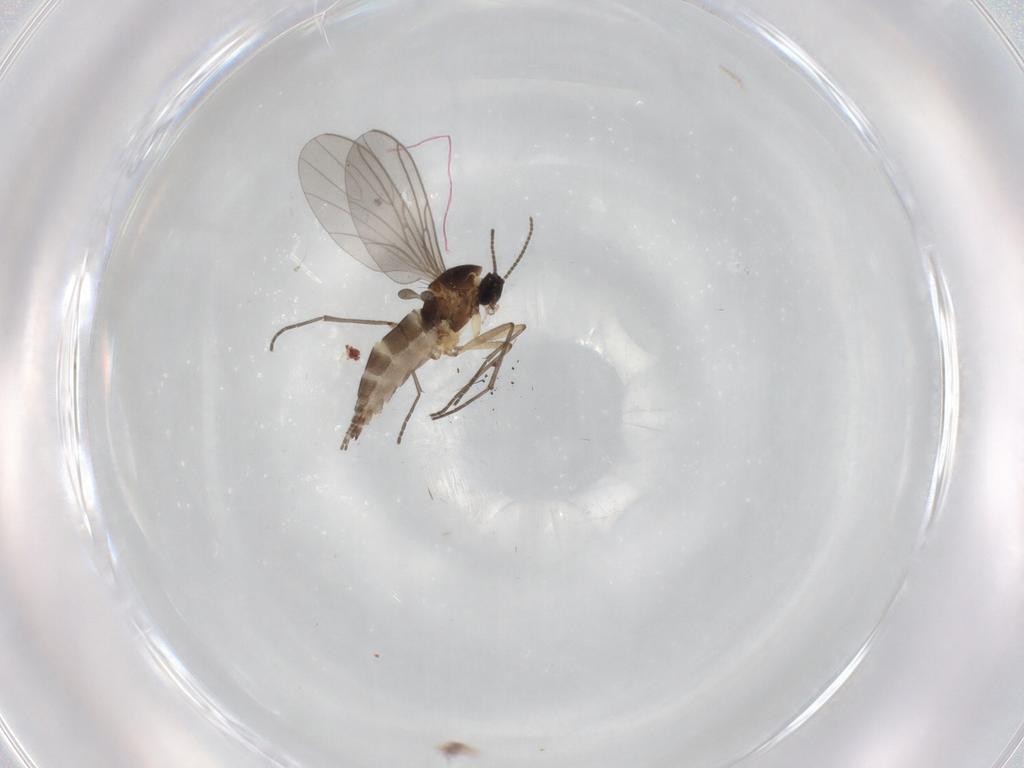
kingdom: Animalia
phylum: Arthropoda
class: Insecta
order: Diptera
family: Sciaridae
